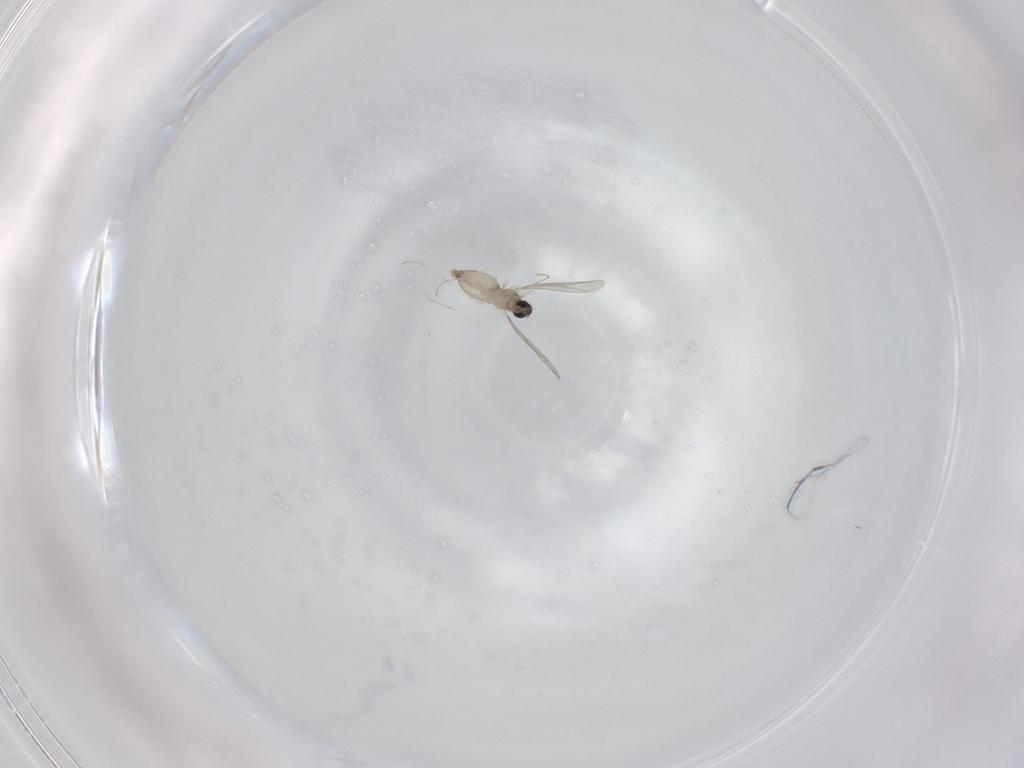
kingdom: Animalia
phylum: Arthropoda
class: Insecta
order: Diptera
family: Cecidomyiidae
